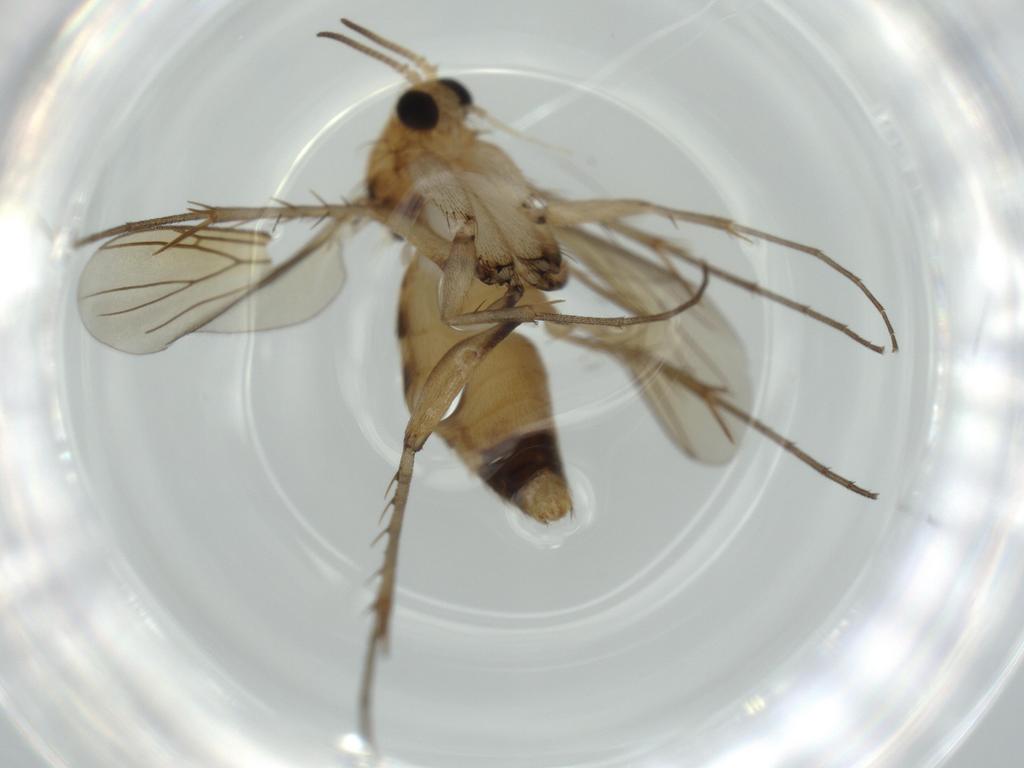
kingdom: Animalia
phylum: Arthropoda
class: Insecta
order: Diptera
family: Mycetophilidae
